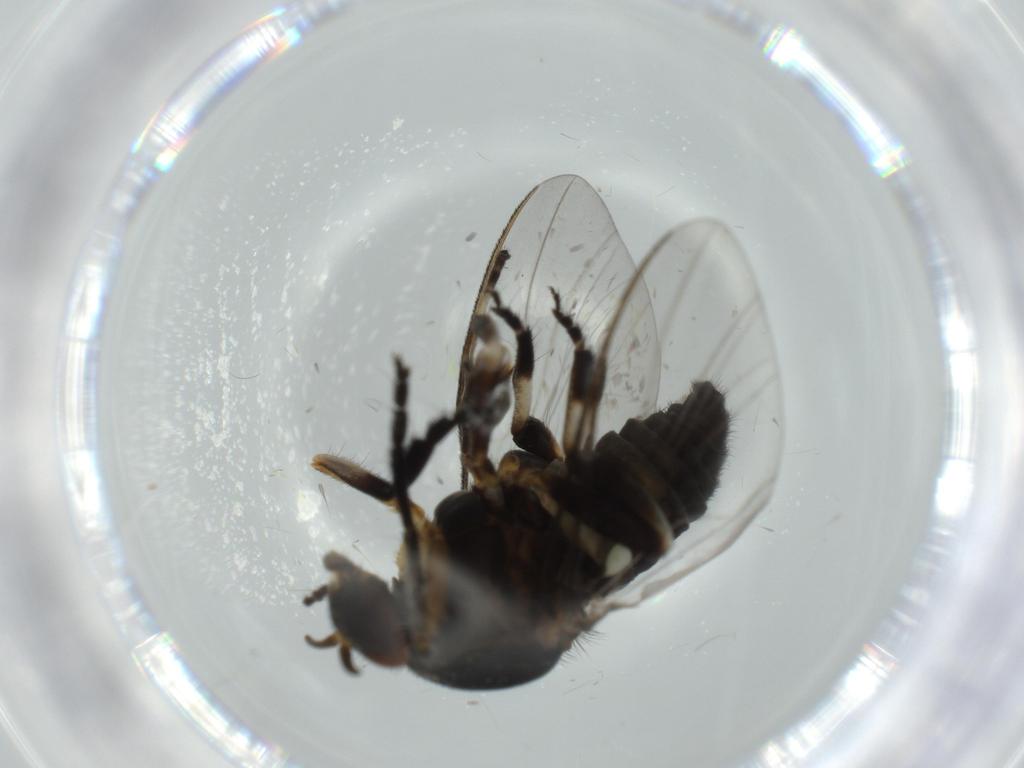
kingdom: Animalia
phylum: Arthropoda
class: Insecta
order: Diptera
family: Sciaridae
